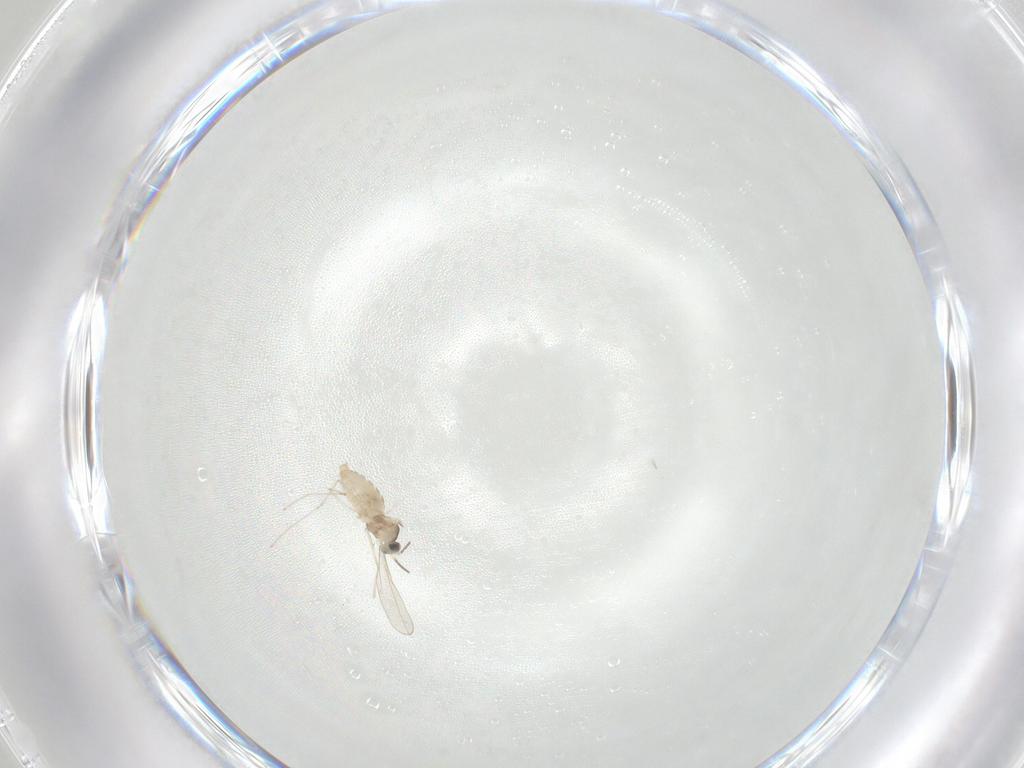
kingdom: Animalia
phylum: Arthropoda
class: Insecta
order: Diptera
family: Cecidomyiidae
